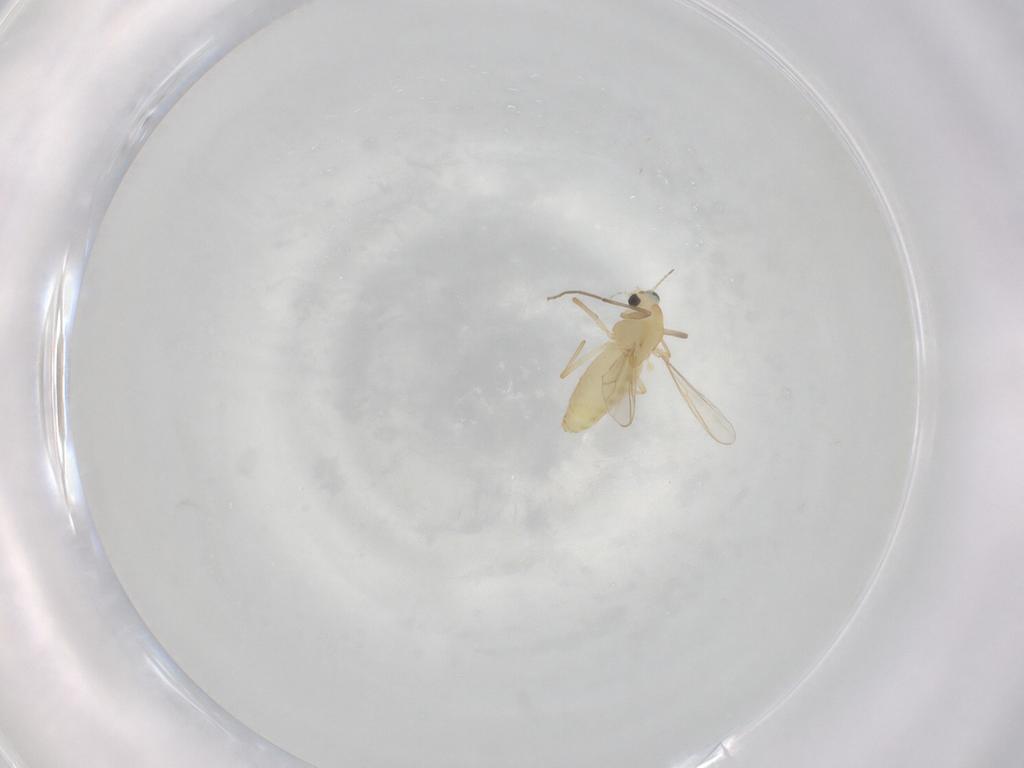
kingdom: Animalia
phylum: Arthropoda
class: Insecta
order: Diptera
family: Chironomidae
